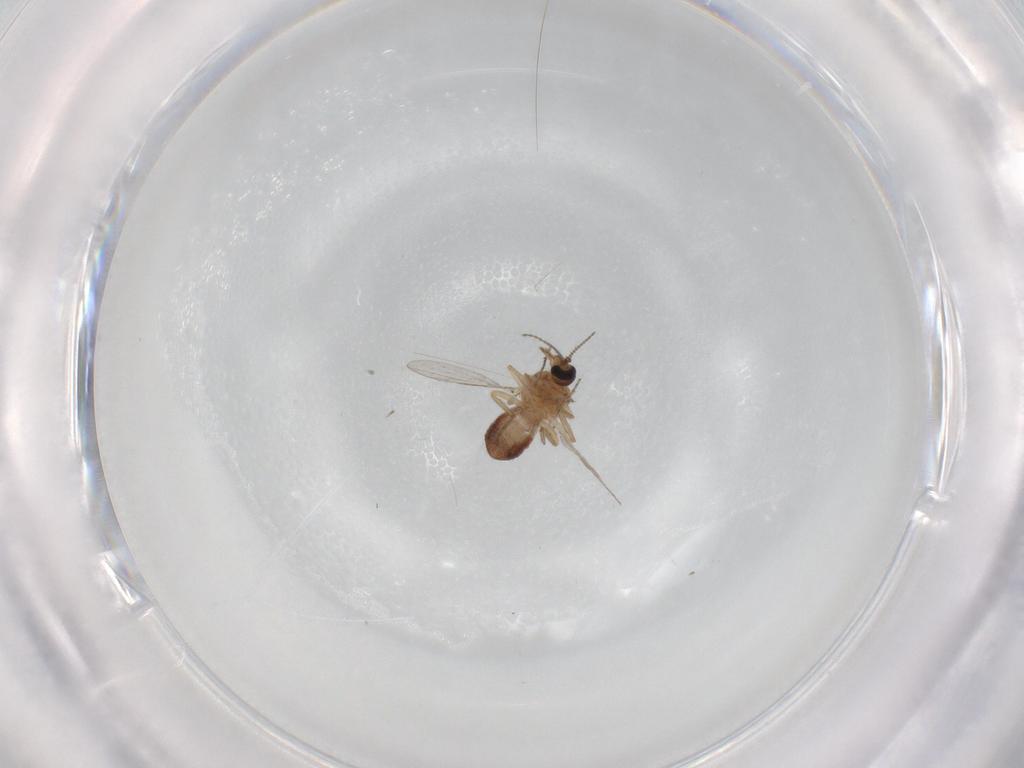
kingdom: Animalia
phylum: Arthropoda
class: Insecta
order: Diptera
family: Ceratopogonidae
